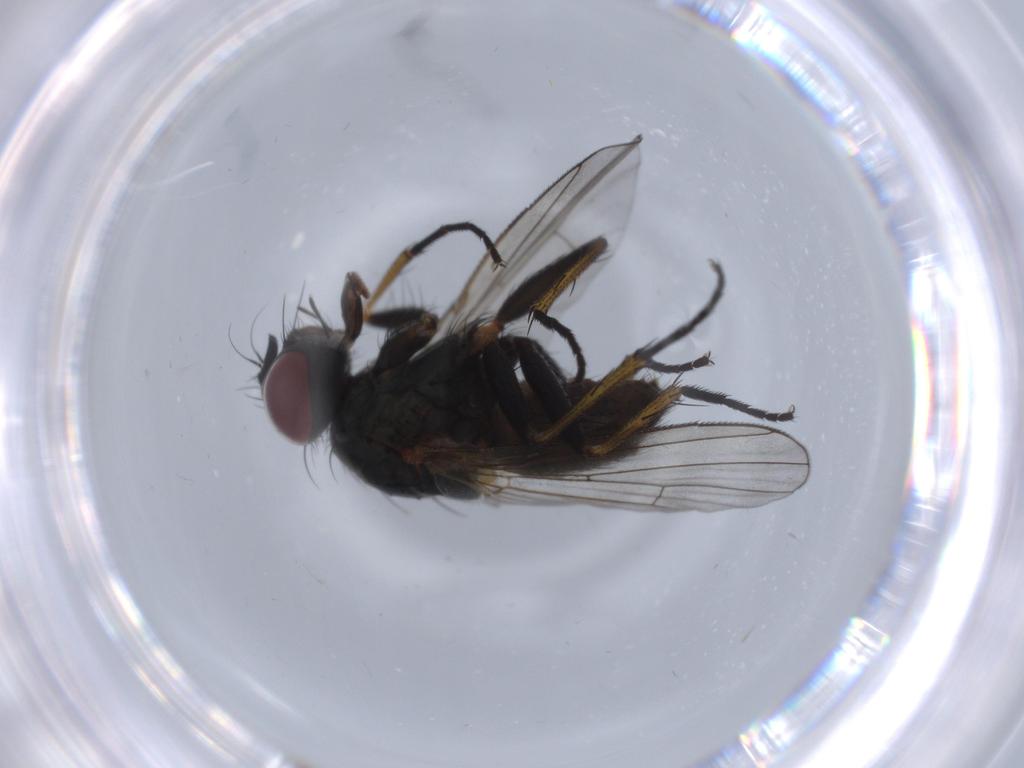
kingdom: Animalia
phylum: Arthropoda
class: Insecta
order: Diptera
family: Muscidae
